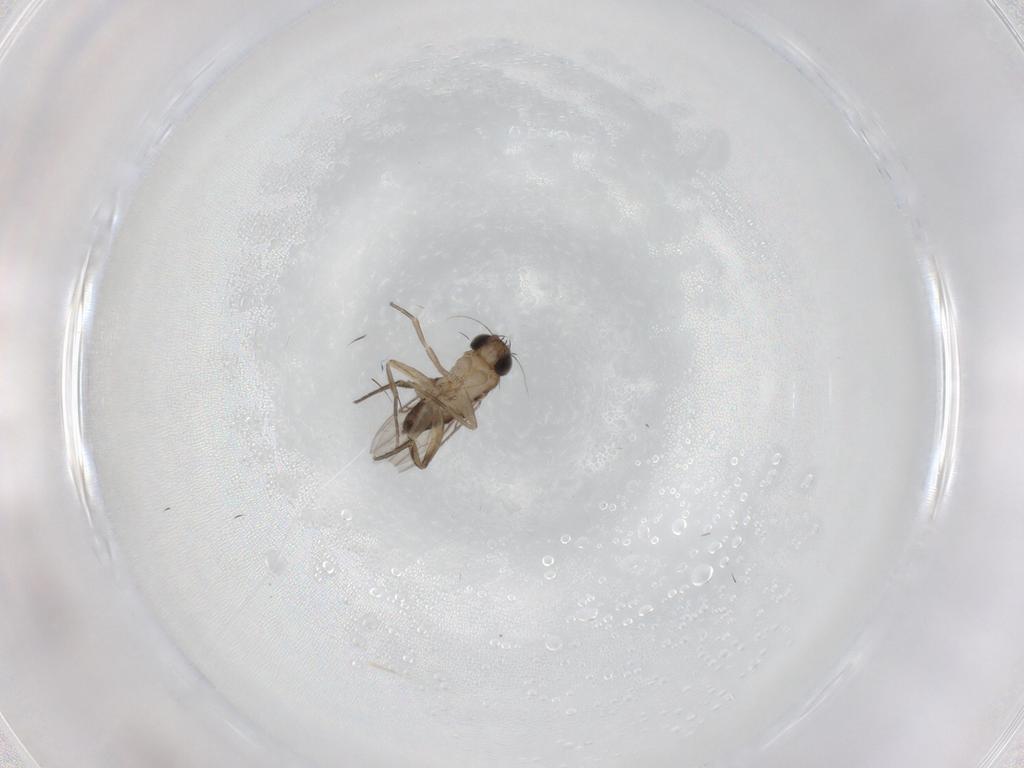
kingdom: Animalia
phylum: Arthropoda
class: Insecta
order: Diptera
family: Phoridae
